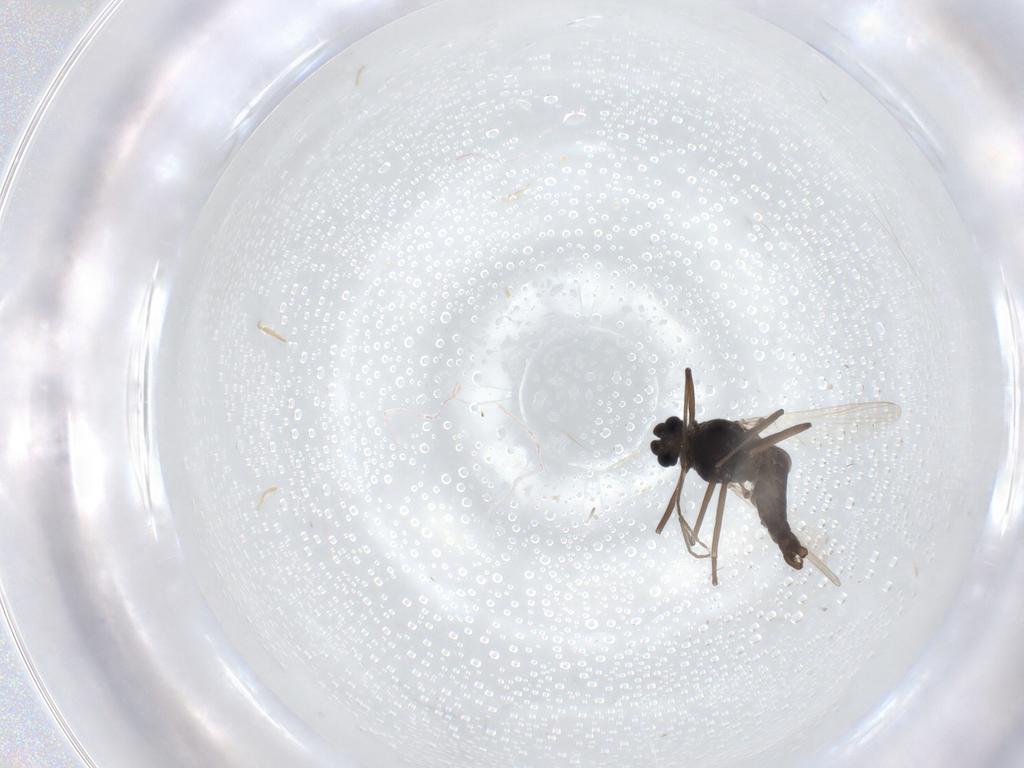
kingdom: Animalia
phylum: Arthropoda
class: Insecta
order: Diptera
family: Chironomidae
